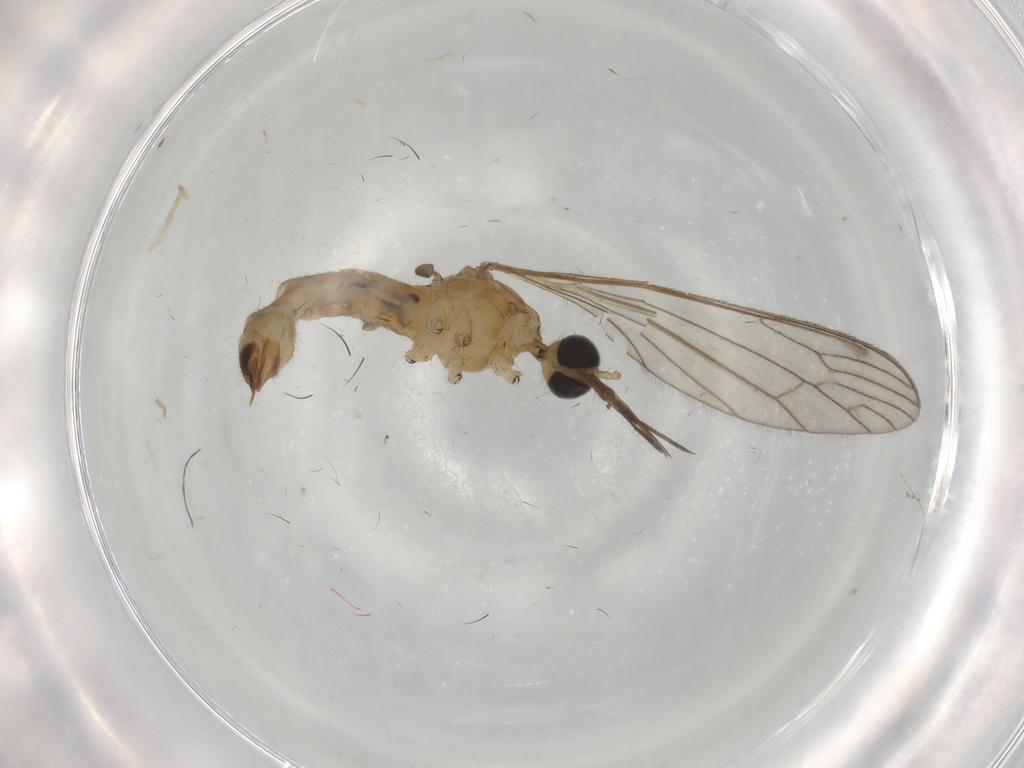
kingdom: Animalia
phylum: Arthropoda
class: Insecta
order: Diptera
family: Limoniidae
